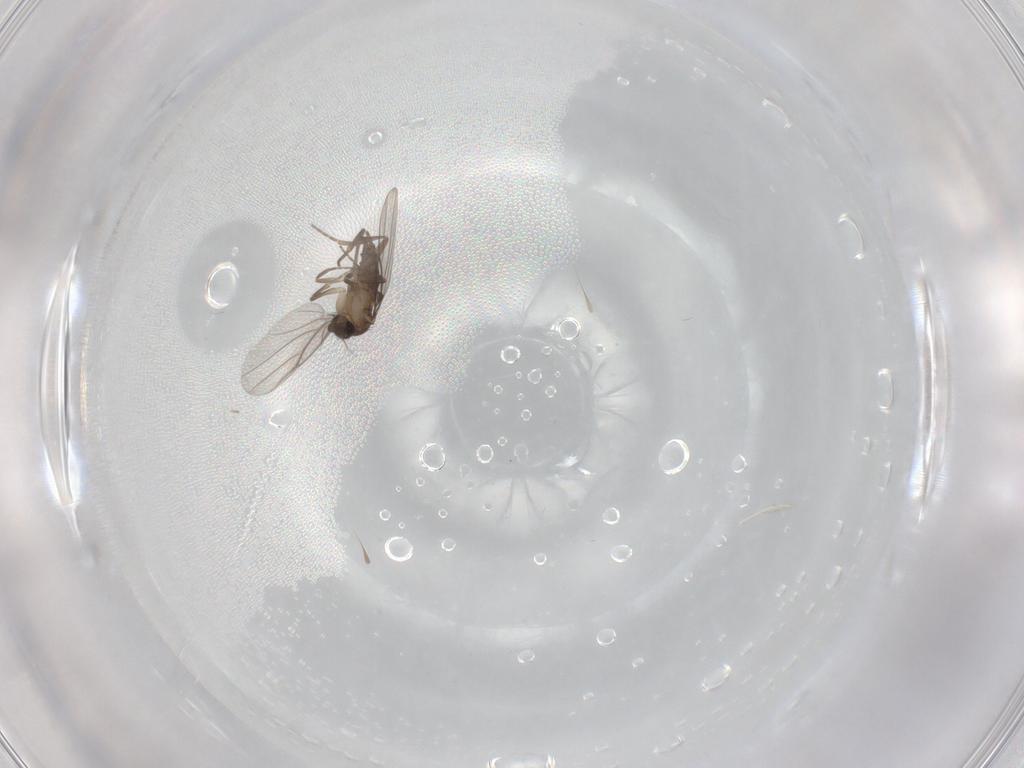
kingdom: Animalia
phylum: Arthropoda
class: Insecta
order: Diptera
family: Phoridae
